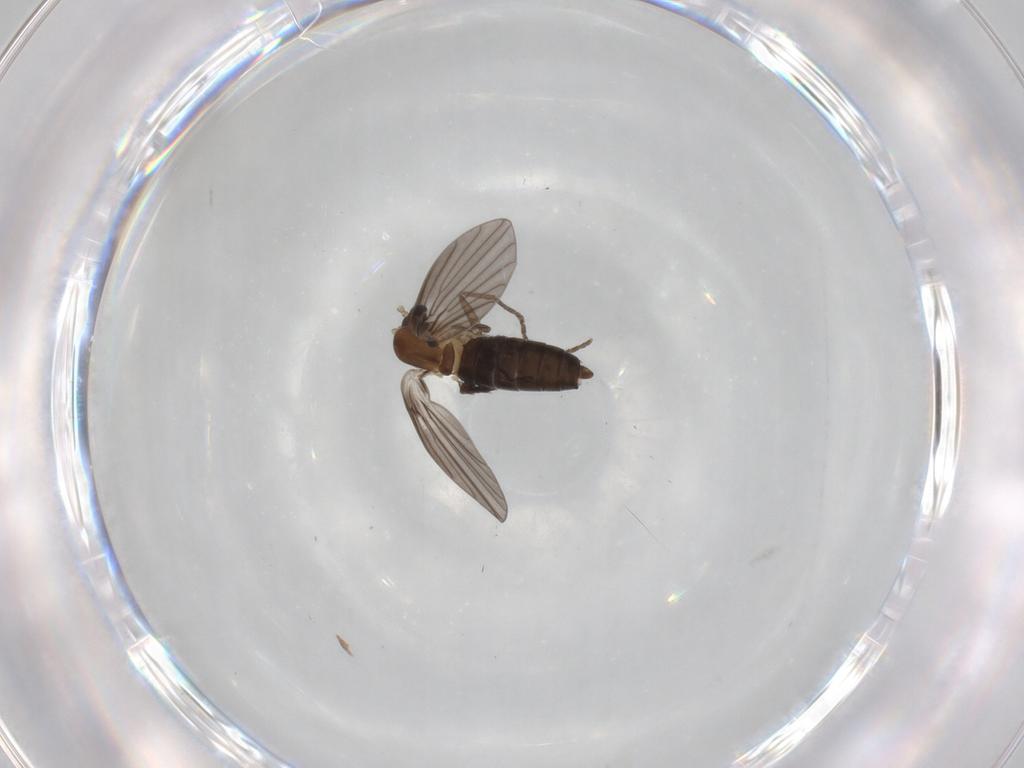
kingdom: Animalia
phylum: Arthropoda
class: Insecta
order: Diptera
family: Psychodidae
